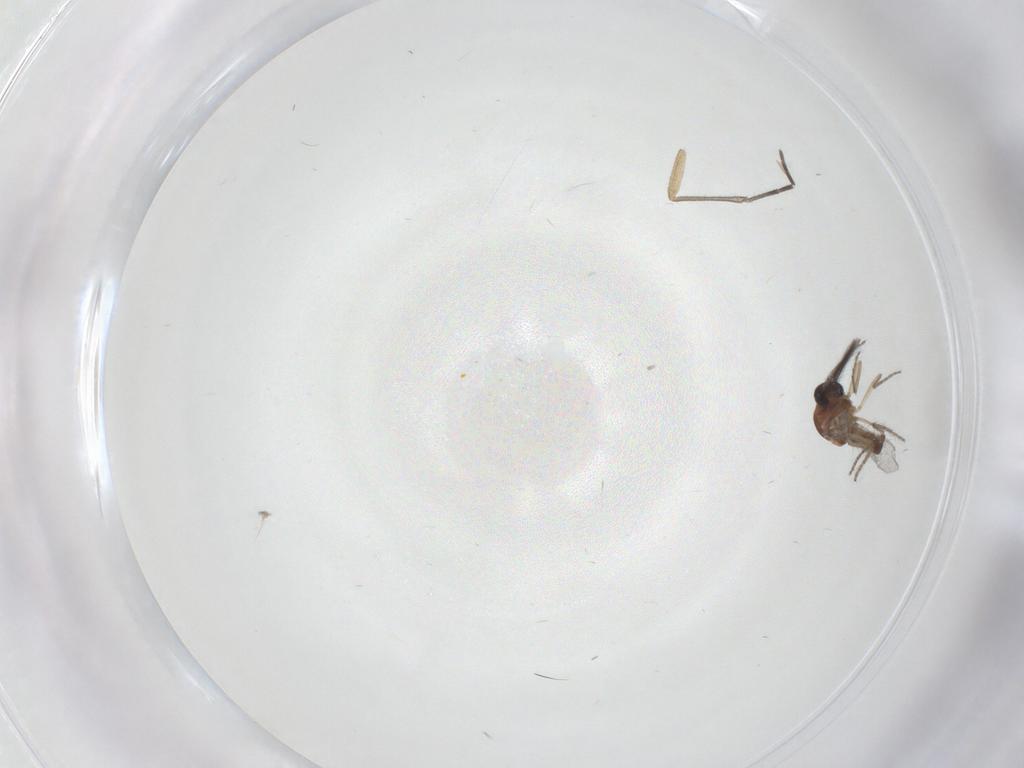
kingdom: Animalia
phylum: Arthropoda
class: Insecta
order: Diptera
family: Ceratopogonidae
